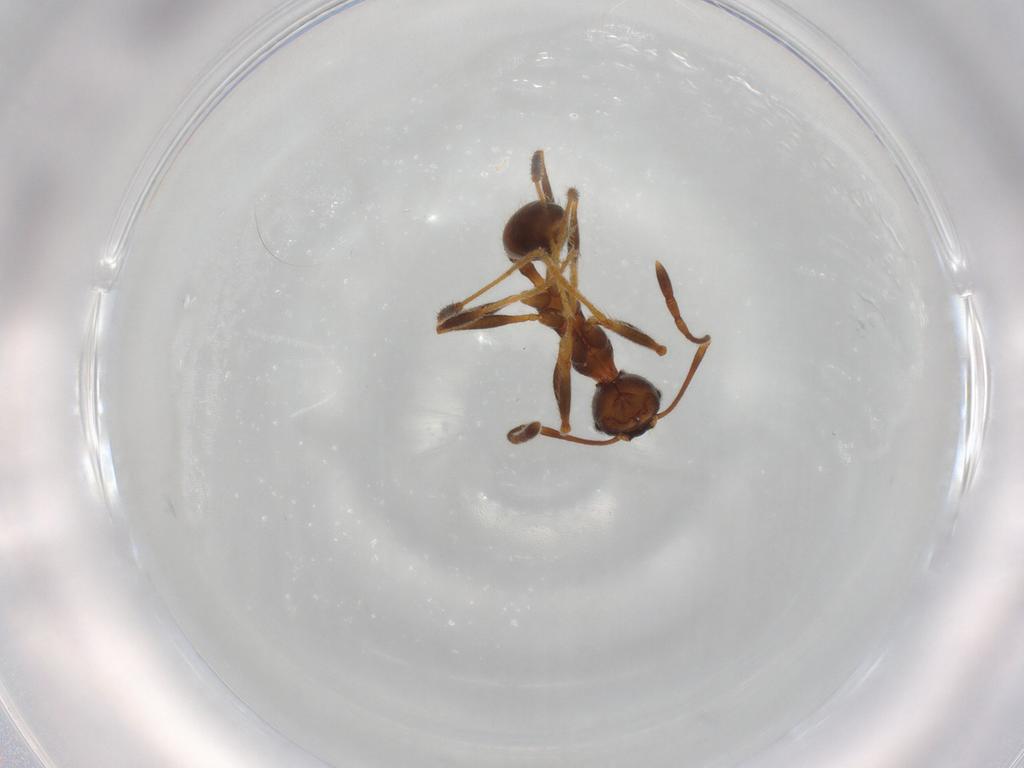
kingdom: Animalia
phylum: Arthropoda
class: Insecta
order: Hymenoptera
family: Formicidae
